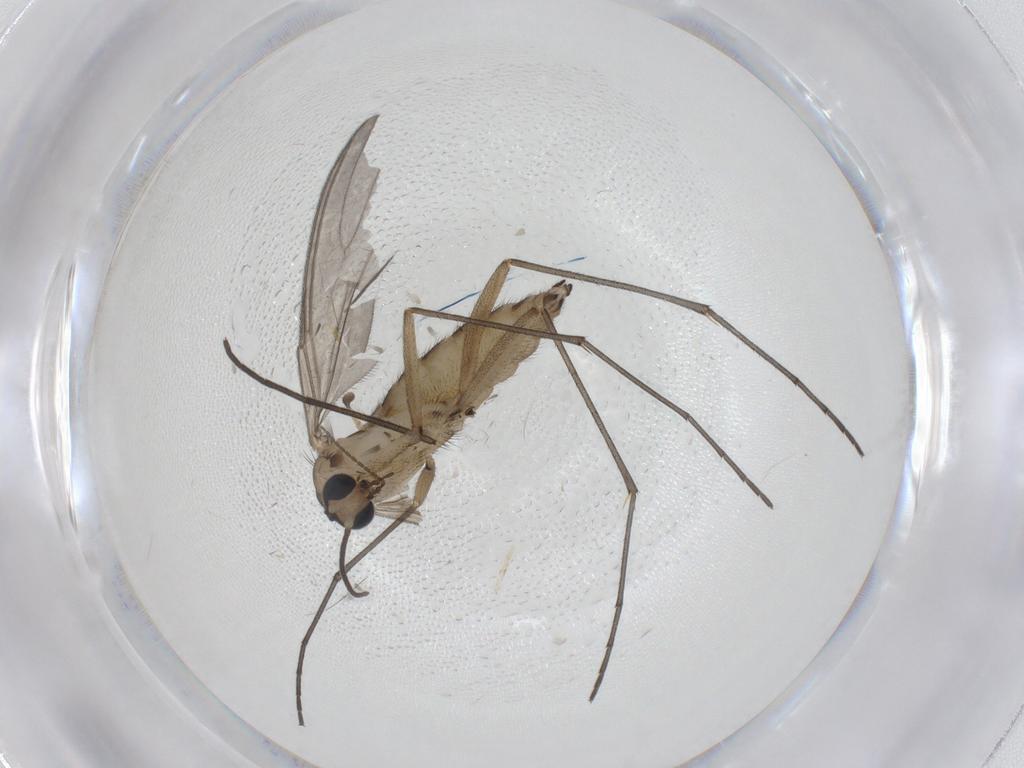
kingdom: Animalia
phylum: Arthropoda
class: Insecta
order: Diptera
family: Sciaridae
